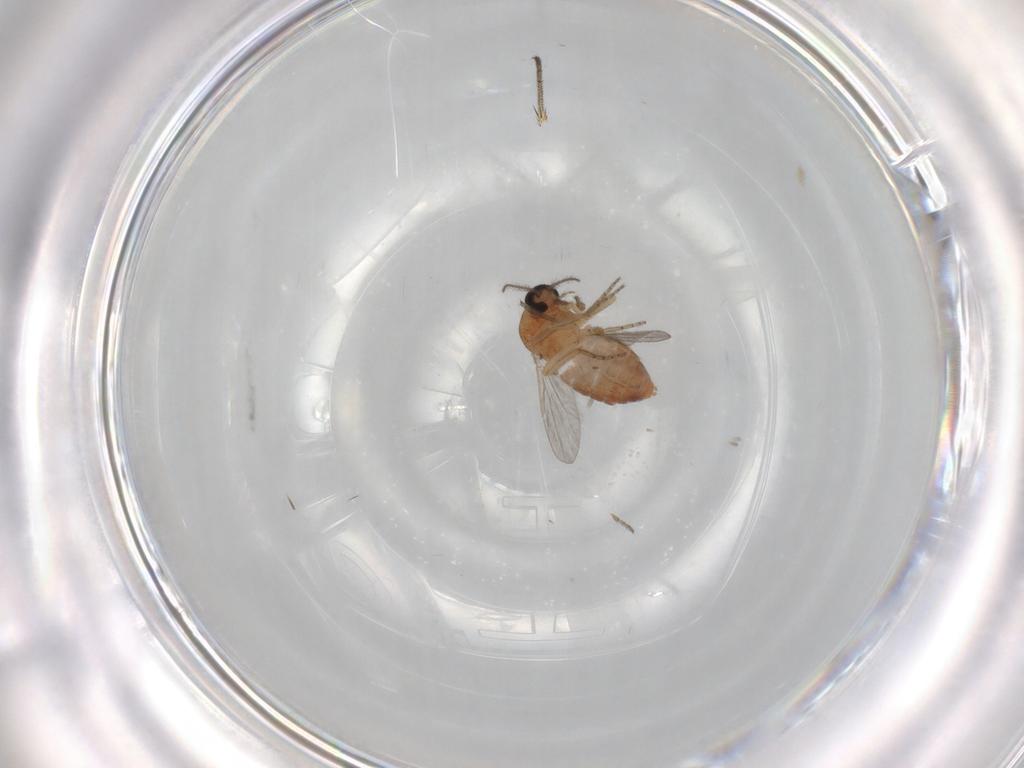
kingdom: Animalia
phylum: Arthropoda
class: Insecta
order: Diptera
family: Ceratopogonidae
